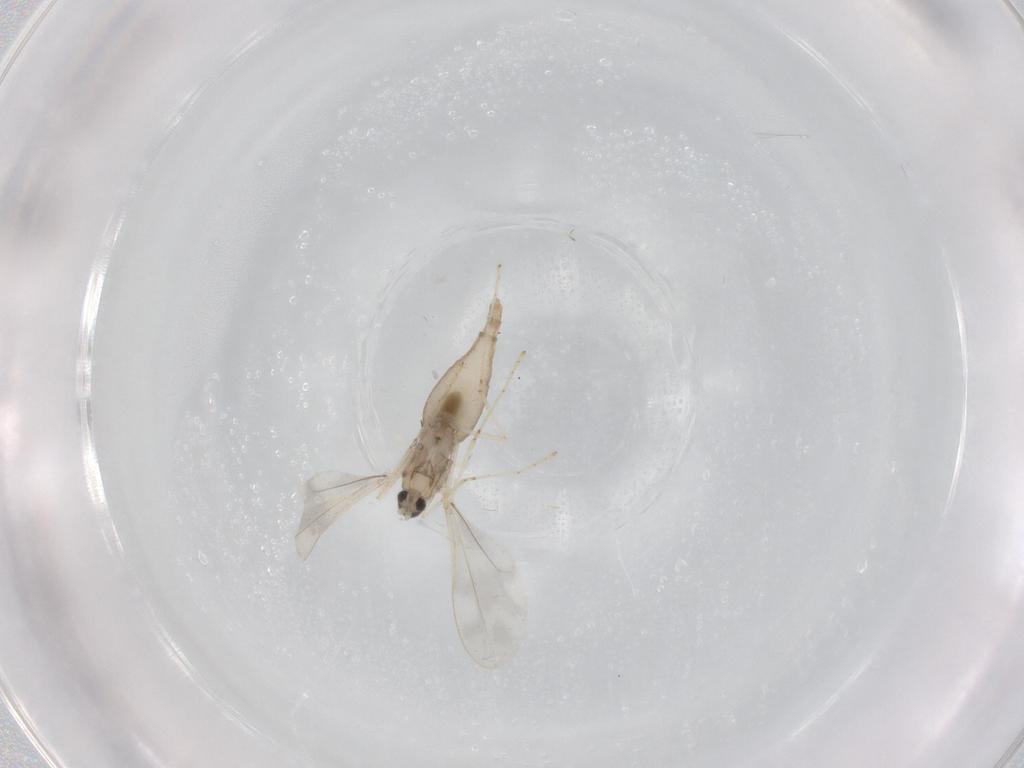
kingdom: Animalia
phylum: Arthropoda
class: Insecta
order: Diptera
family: Cecidomyiidae
